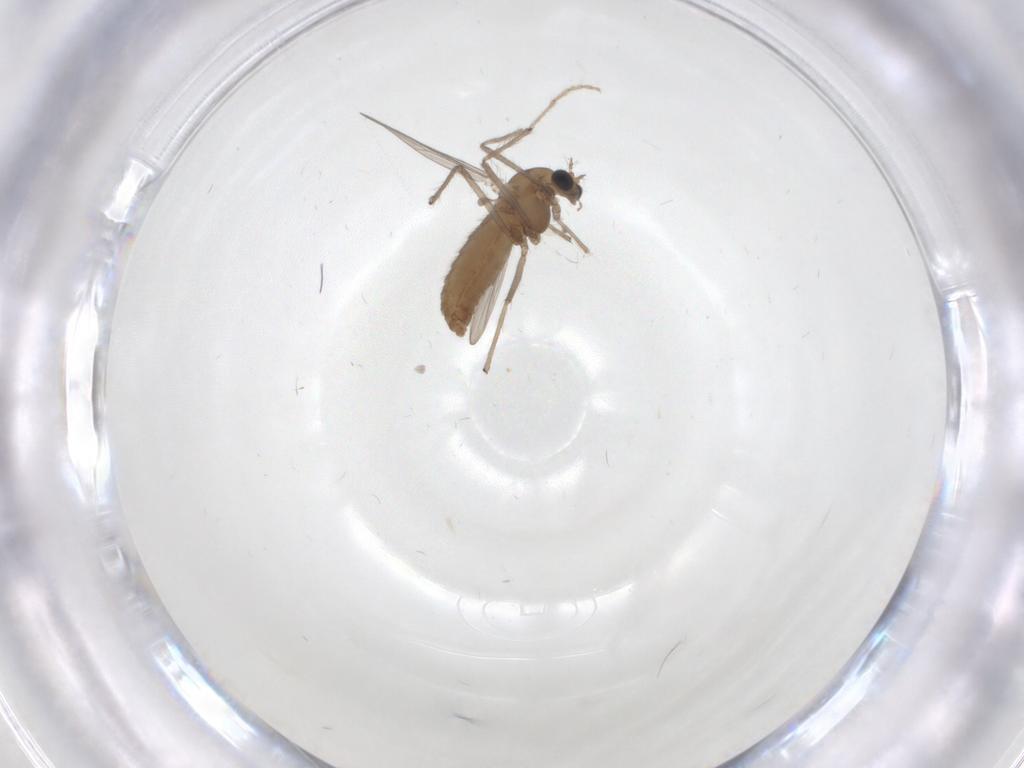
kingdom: Animalia
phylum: Arthropoda
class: Insecta
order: Diptera
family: Chironomidae
